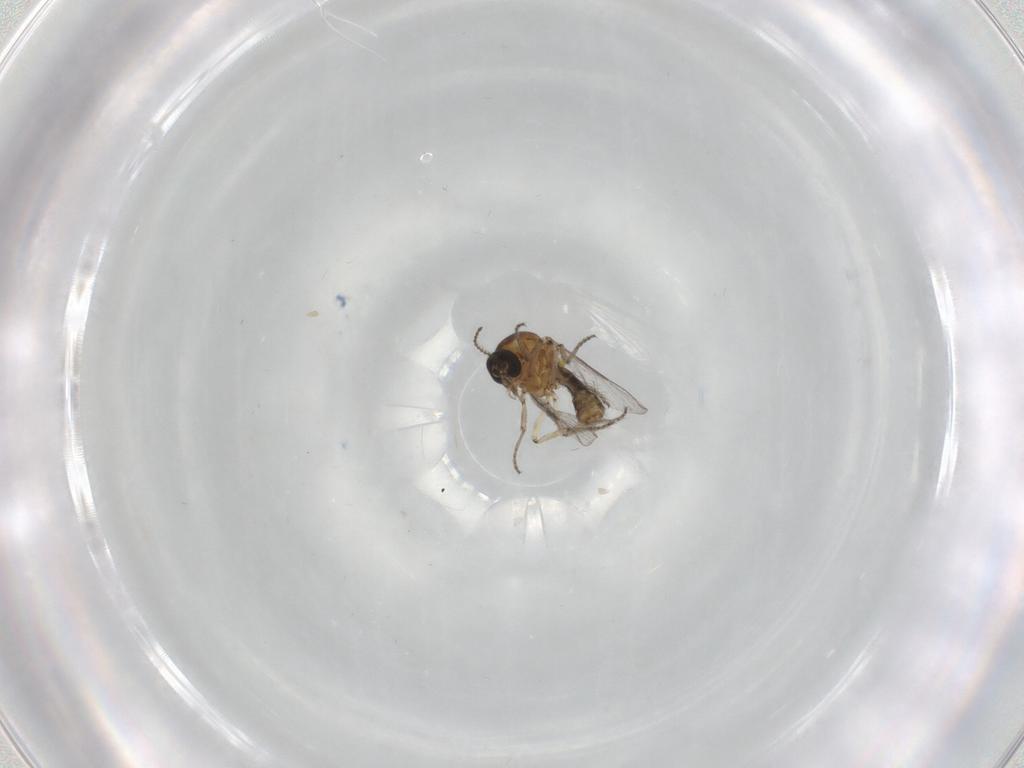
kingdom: Animalia
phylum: Arthropoda
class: Insecta
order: Diptera
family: Ceratopogonidae
